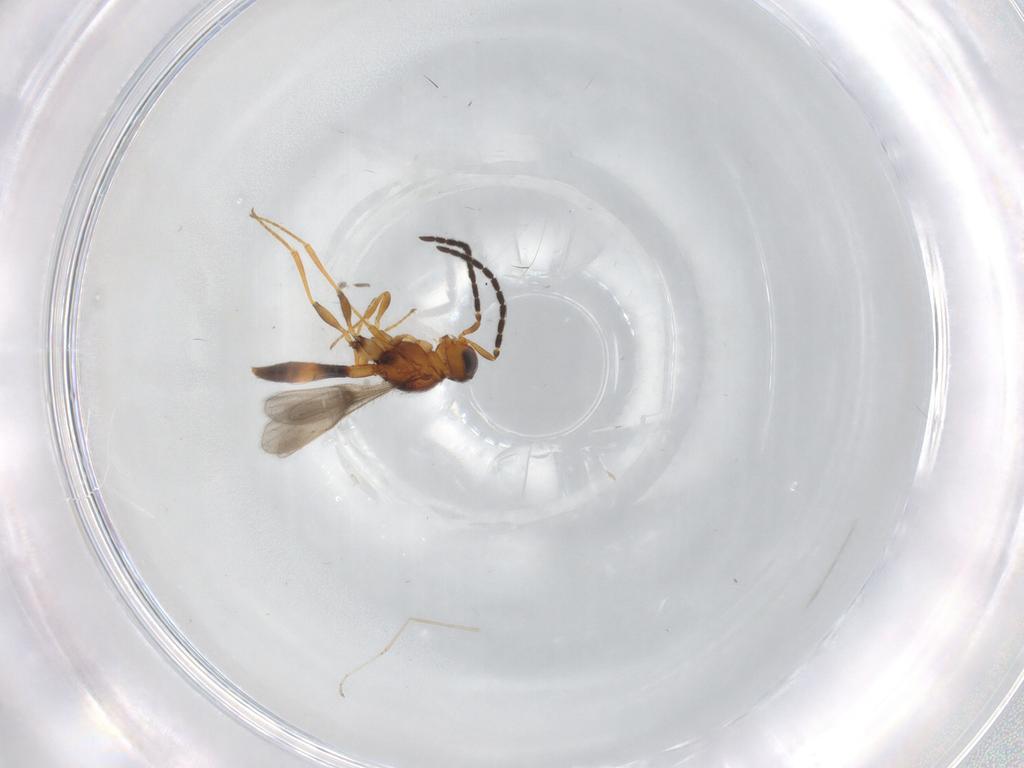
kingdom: Animalia
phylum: Arthropoda
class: Insecta
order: Hymenoptera
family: Scelionidae
